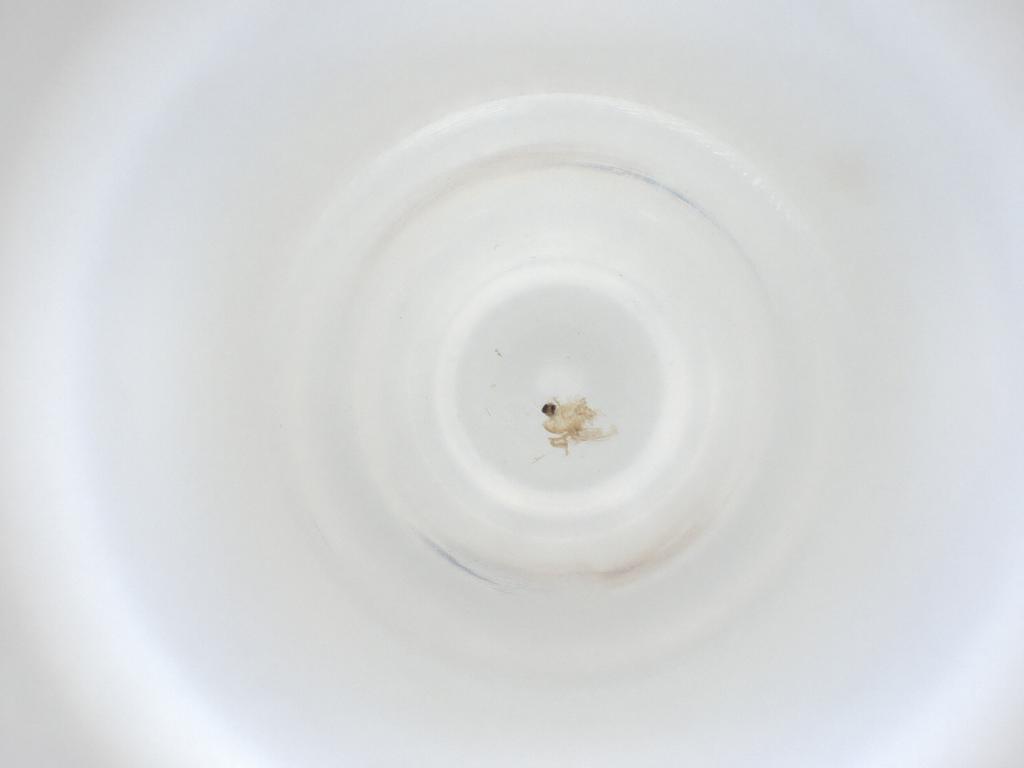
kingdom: Animalia
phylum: Arthropoda
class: Insecta
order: Diptera
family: Cecidomyiidae
